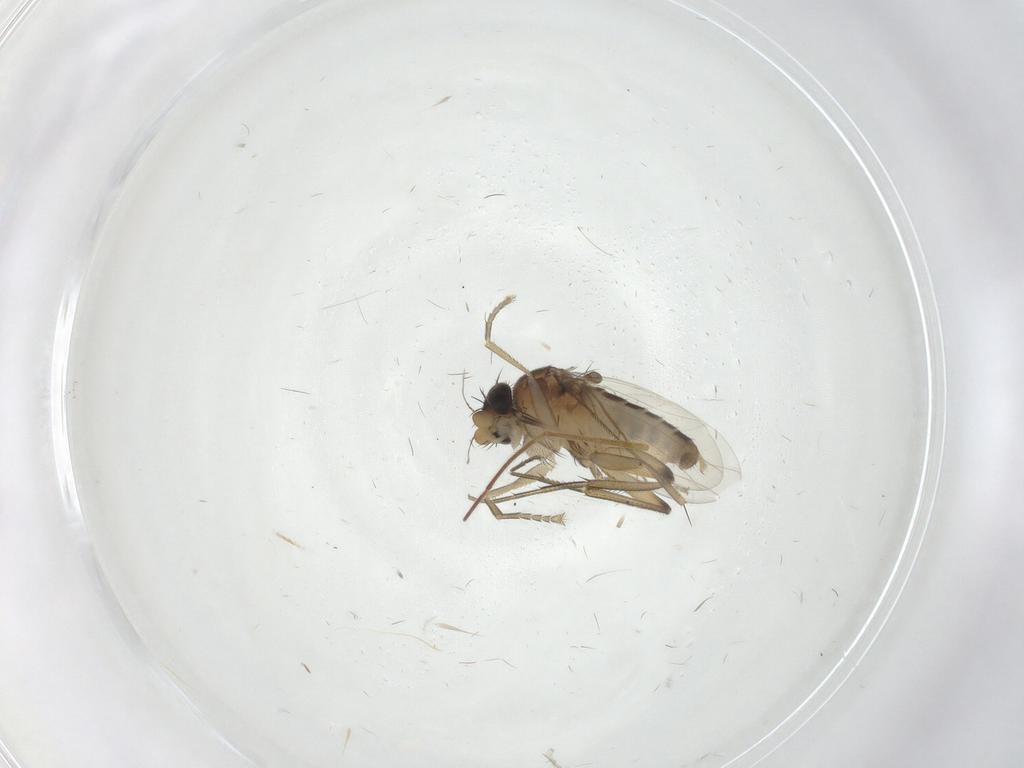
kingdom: Animalia
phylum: Arthropoda
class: Insecta
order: Diptera
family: Phoridae
